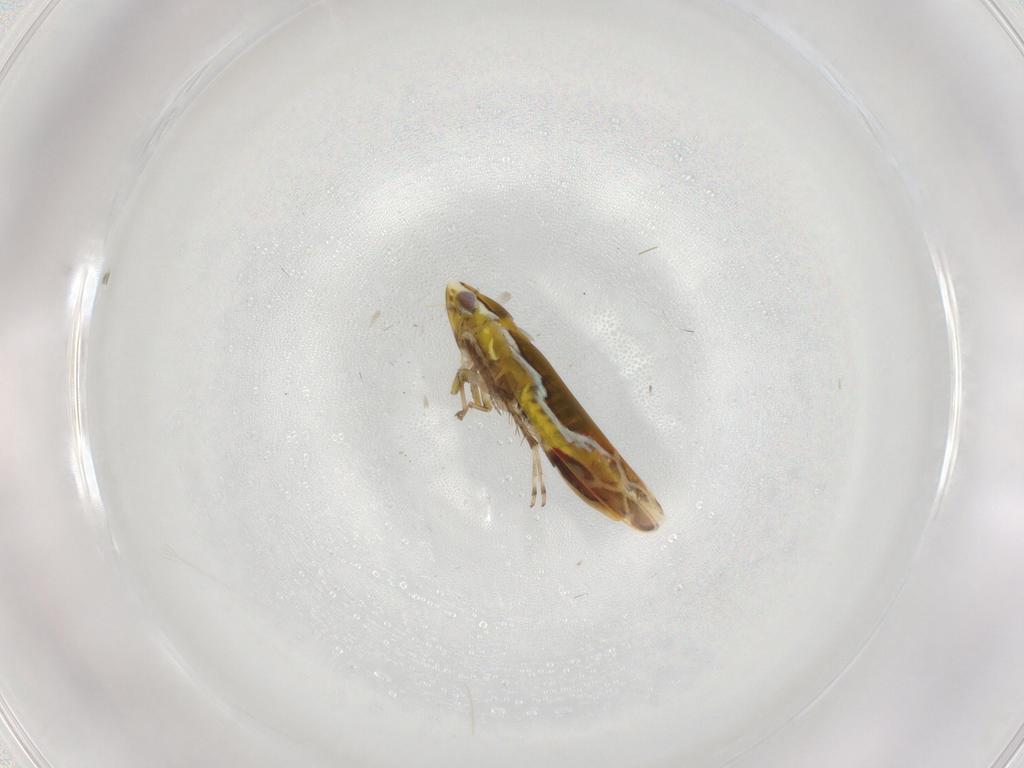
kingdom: Animalia
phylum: Arthropoda
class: Insecta
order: Hemiptera
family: Cicadellidae
